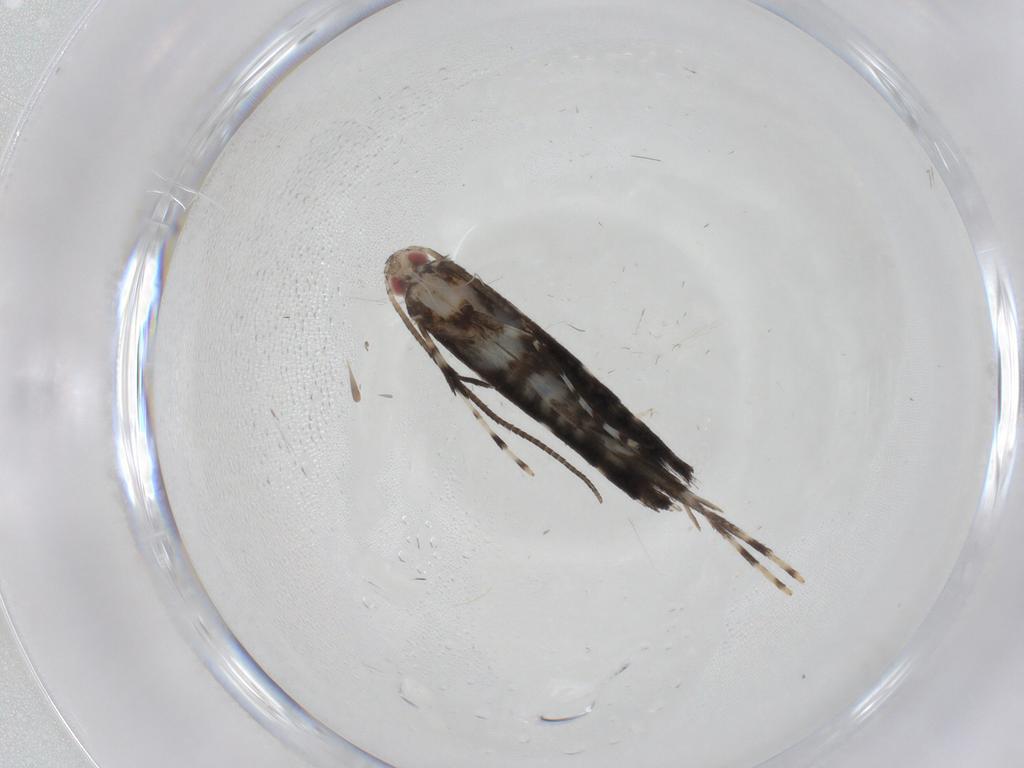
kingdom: Animalia
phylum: Arthropoda
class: Insecta
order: Lepidoptera
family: Gracillariidae
